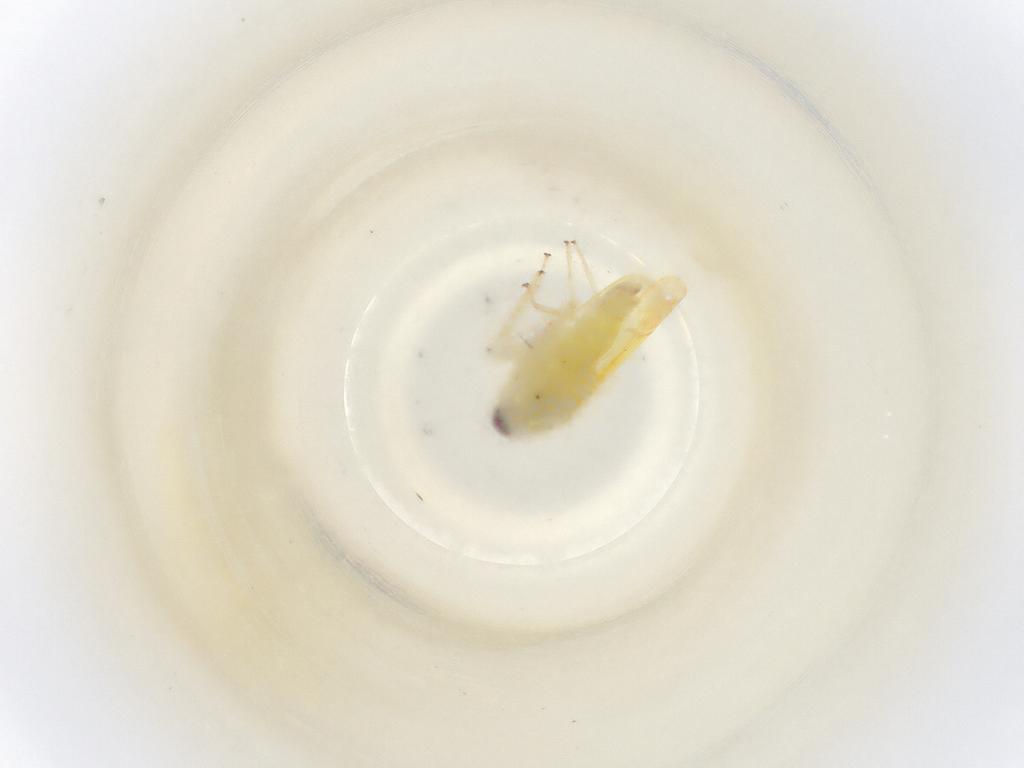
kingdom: Animalia
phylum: Arthropoda
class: Insecta
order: Hemiptera
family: Cicadellidae
